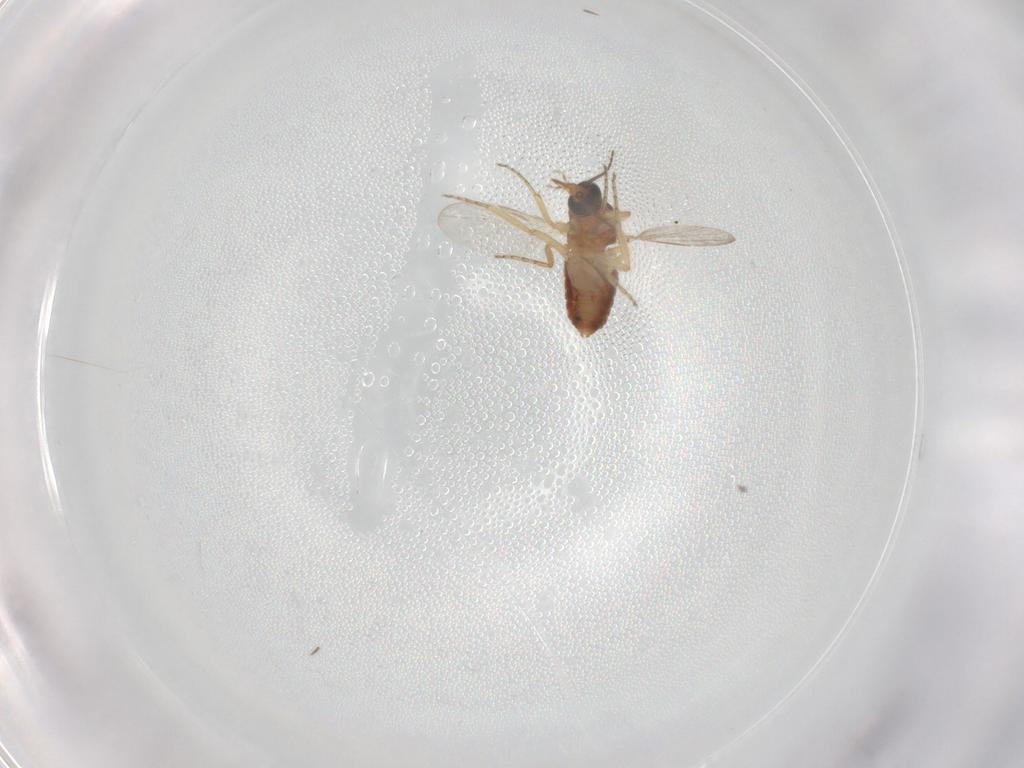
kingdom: Animalia
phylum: Arthropoda
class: Insecta
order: Diptera
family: Ceratopogonidae
